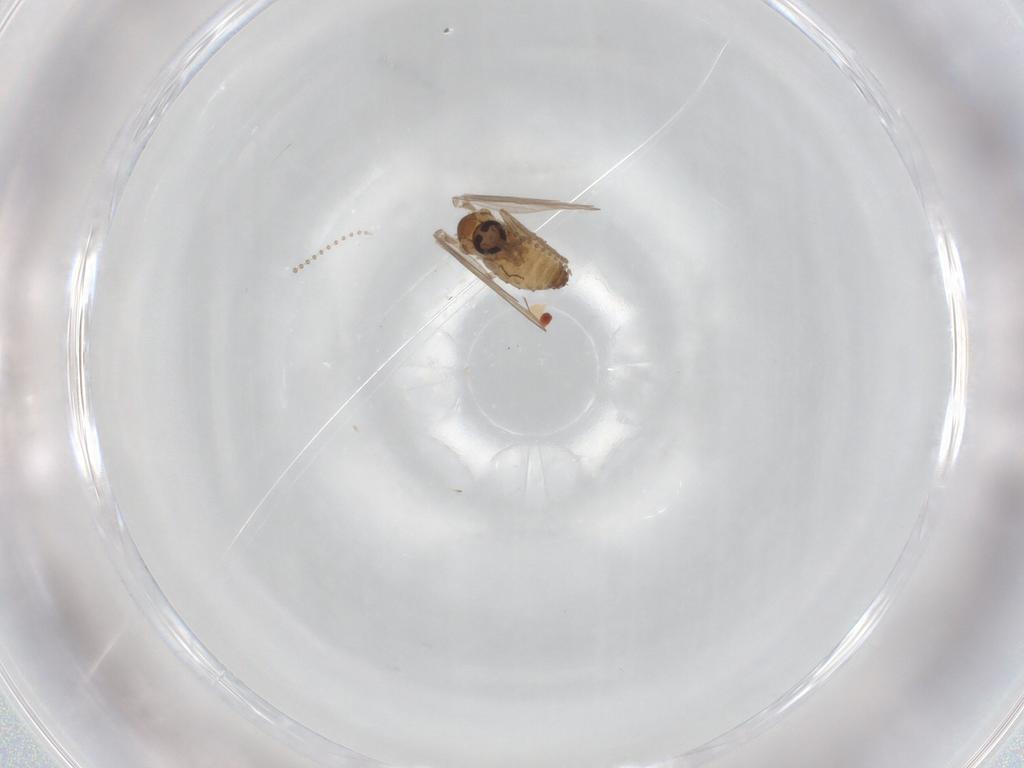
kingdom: Animalia
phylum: Arthropoda
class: Insecta
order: Diptera
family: Psychodidae
